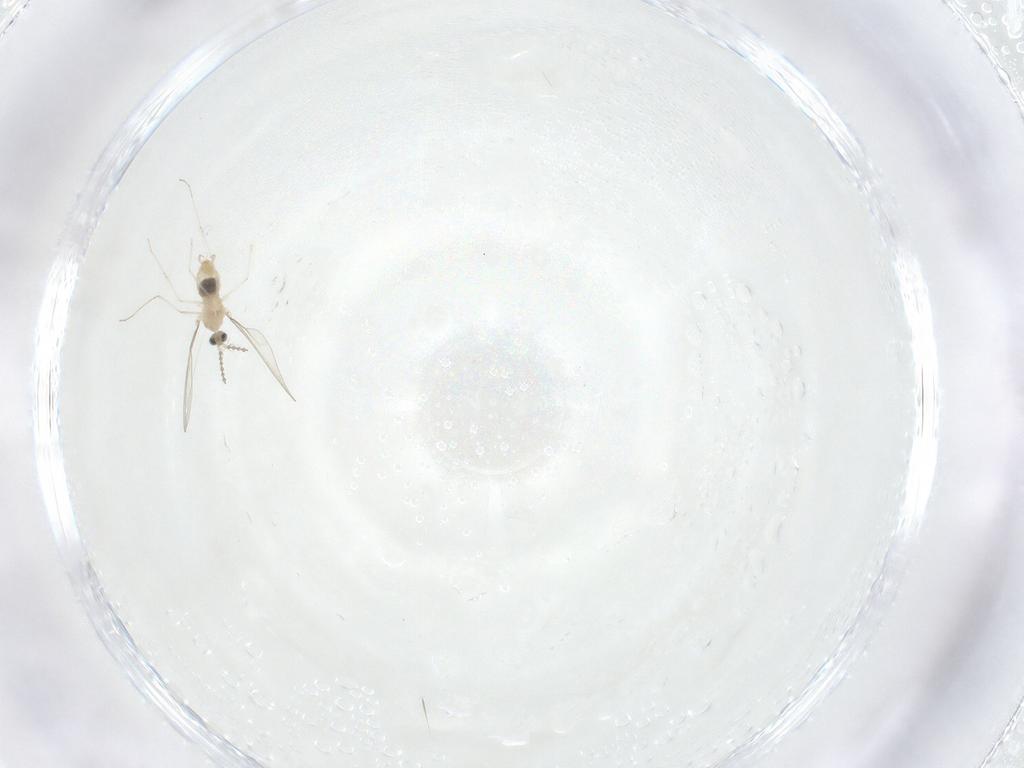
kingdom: Animalia
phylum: Arthropoda
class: Insecta
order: Diptera
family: Cecidomyiidae
